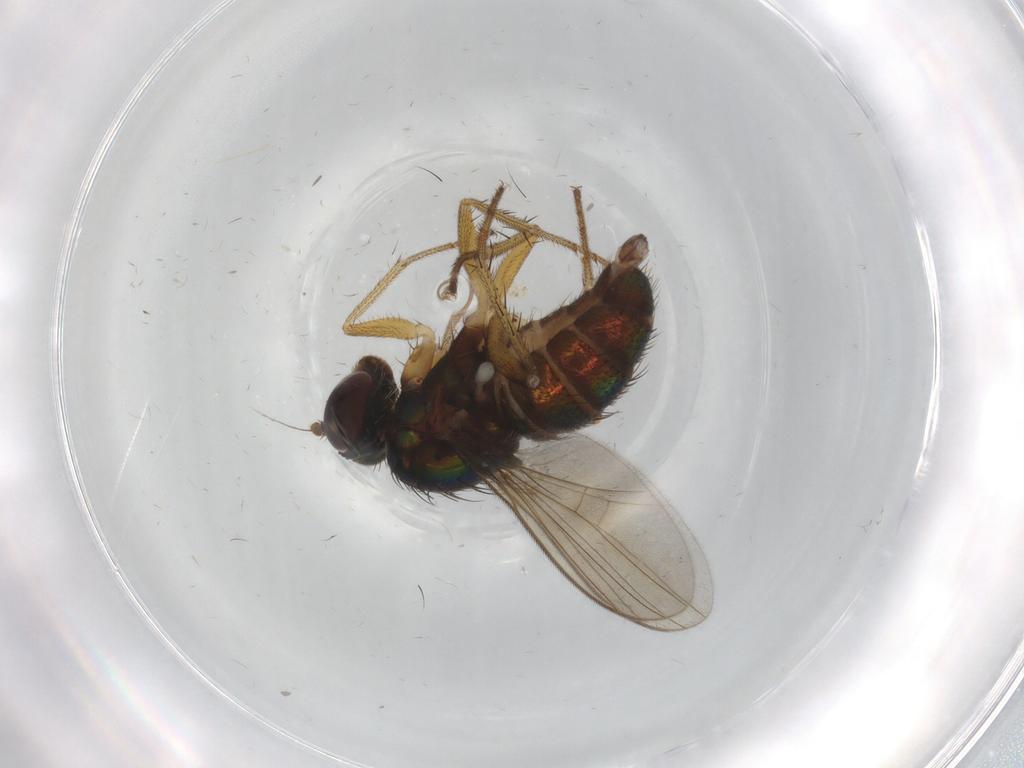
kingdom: Animalia
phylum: Arthropoda
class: Insecta
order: Diptera
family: Dolichopodidae
